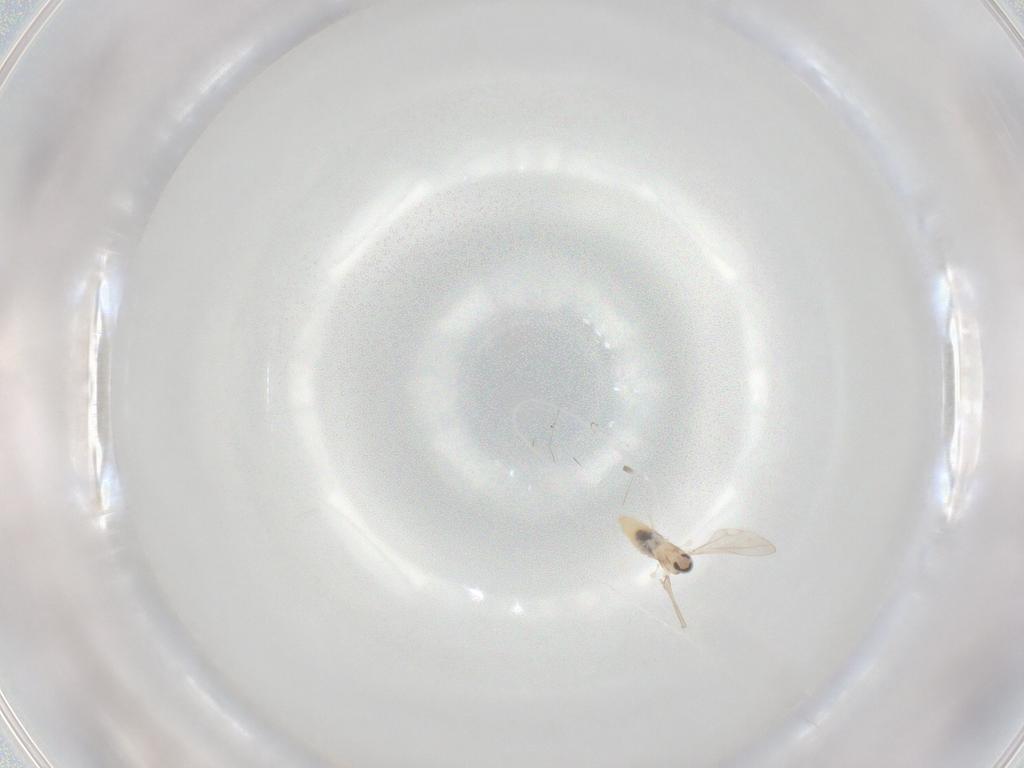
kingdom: Animalia
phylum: Arthropoda
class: Insecta
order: Diptera
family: Cecidomyiidae
